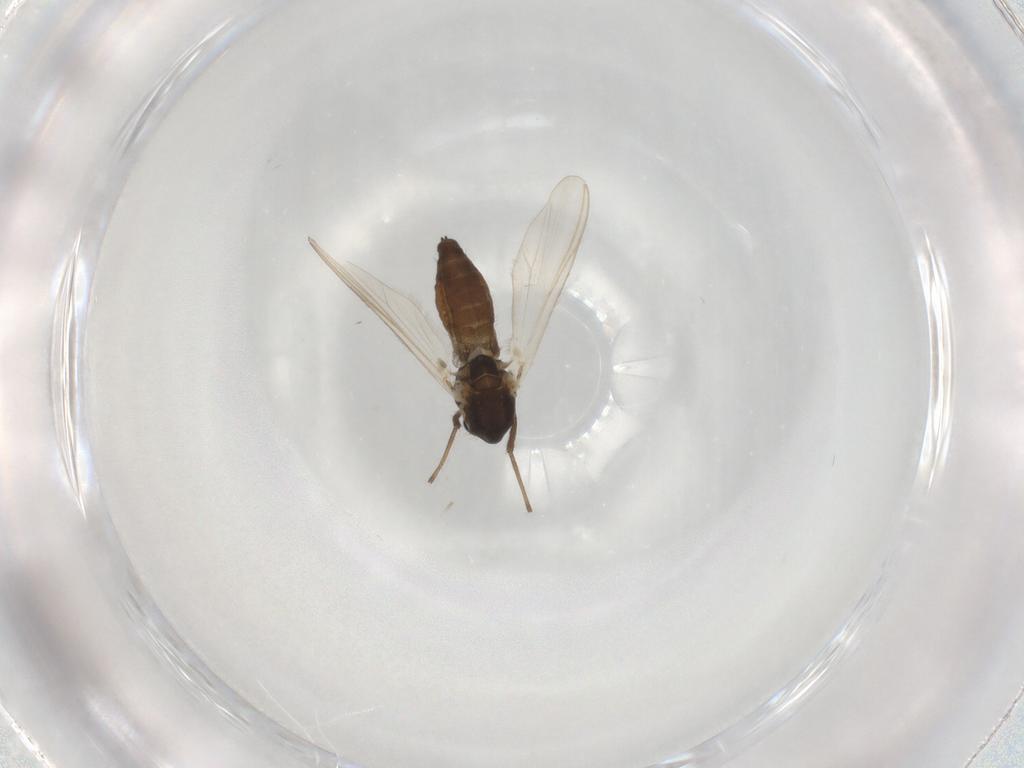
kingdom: Animalia
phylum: Arthropoda
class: Insecta
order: Diptera
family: Chironomidae
